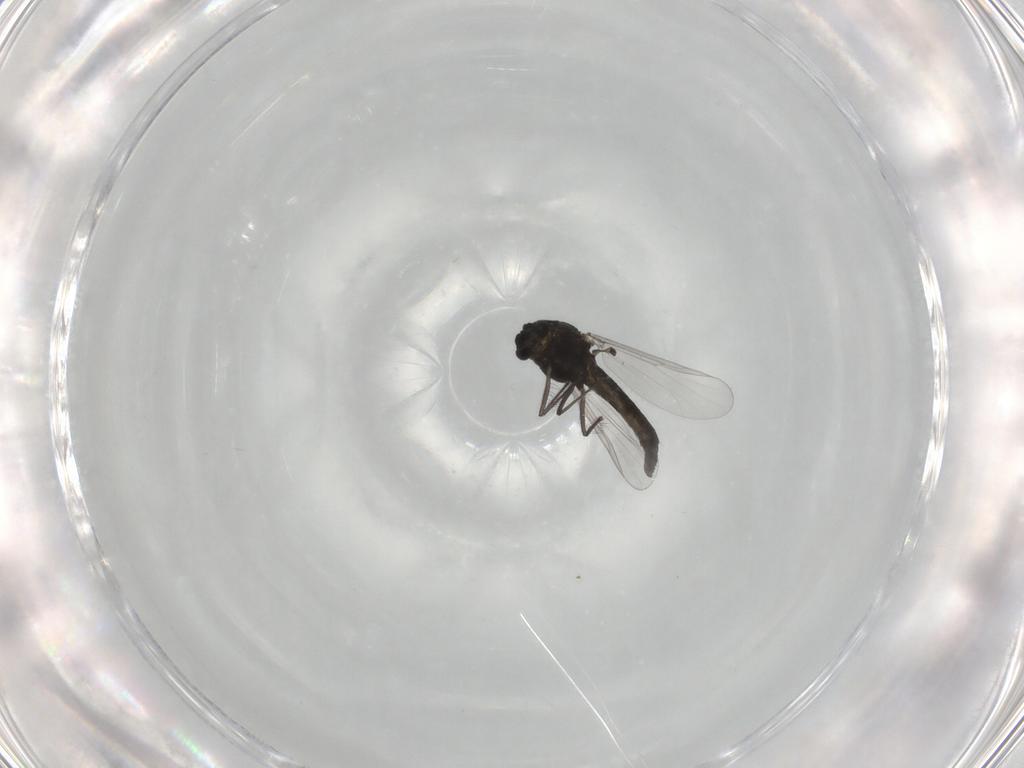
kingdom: Animalia
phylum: Arthropoda
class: Insecta
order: Diptera
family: Chironomidae
